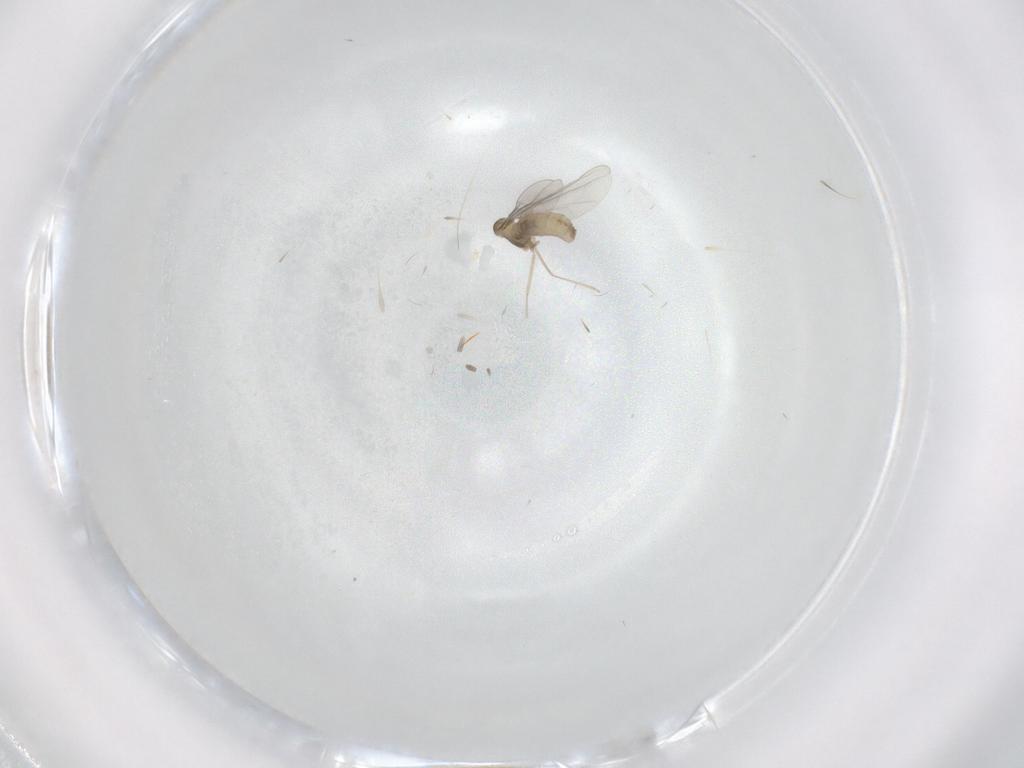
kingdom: Animalia
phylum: Arthropoda
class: Insecta
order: Diptera
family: Cecidomyiidae
